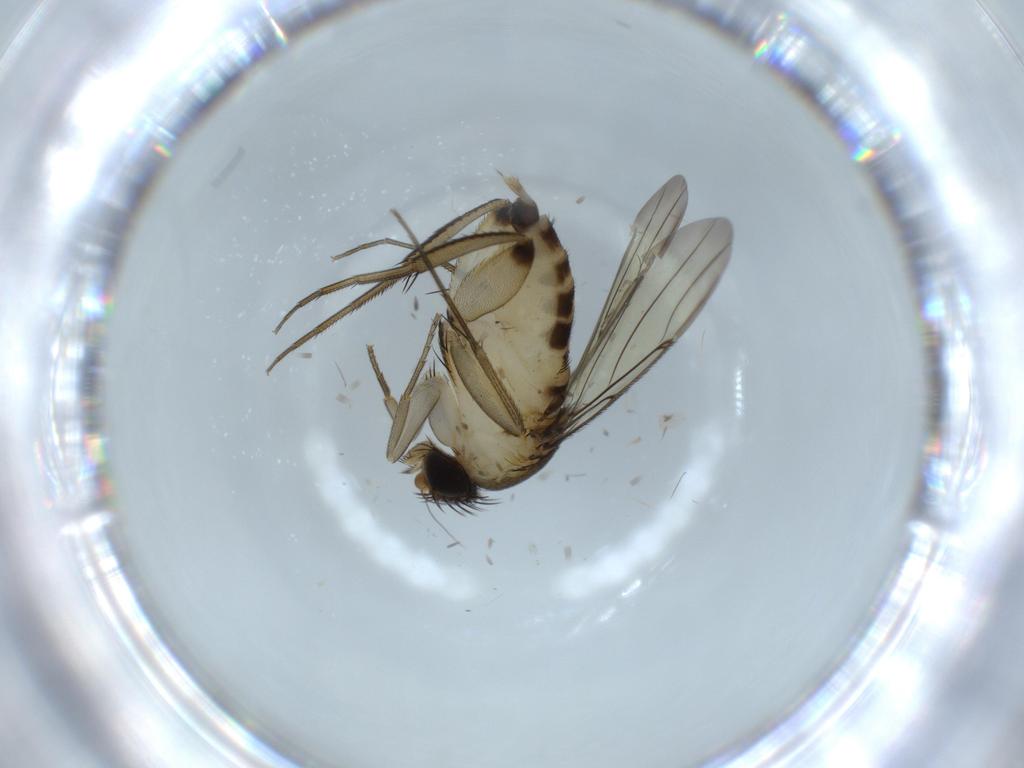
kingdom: Animalia
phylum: Arthropoda
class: Insecta
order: Diptera
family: Phoridae
